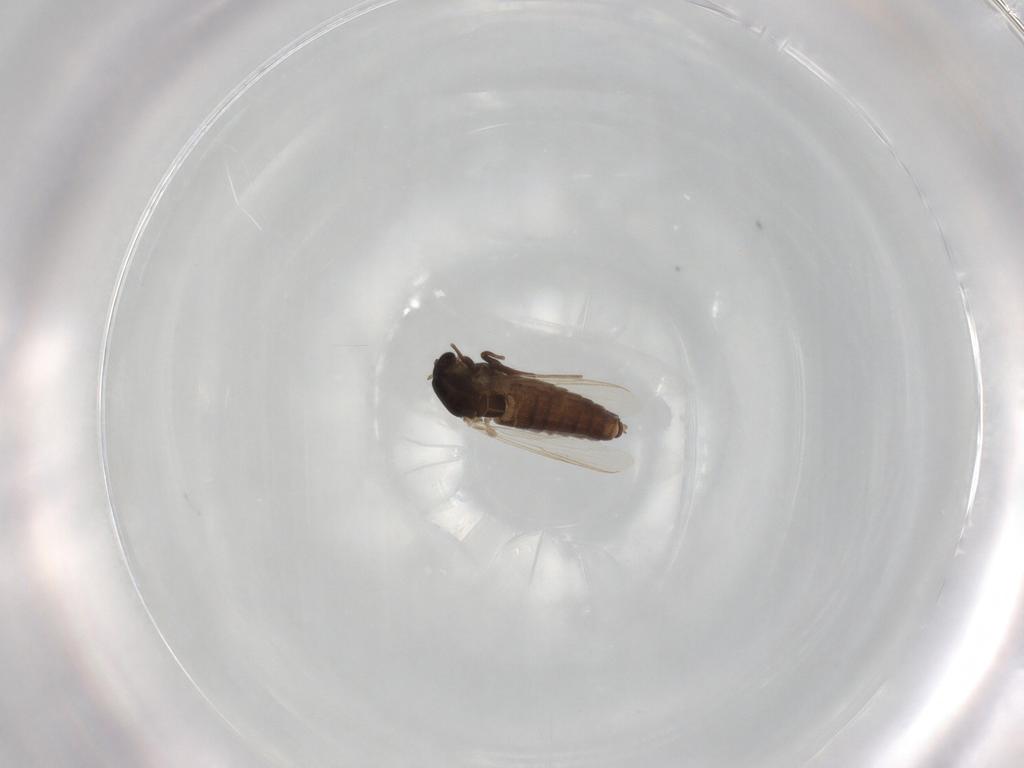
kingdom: Animalia
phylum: Arthropoda
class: Insecta
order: Diptera
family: Chironomidae
